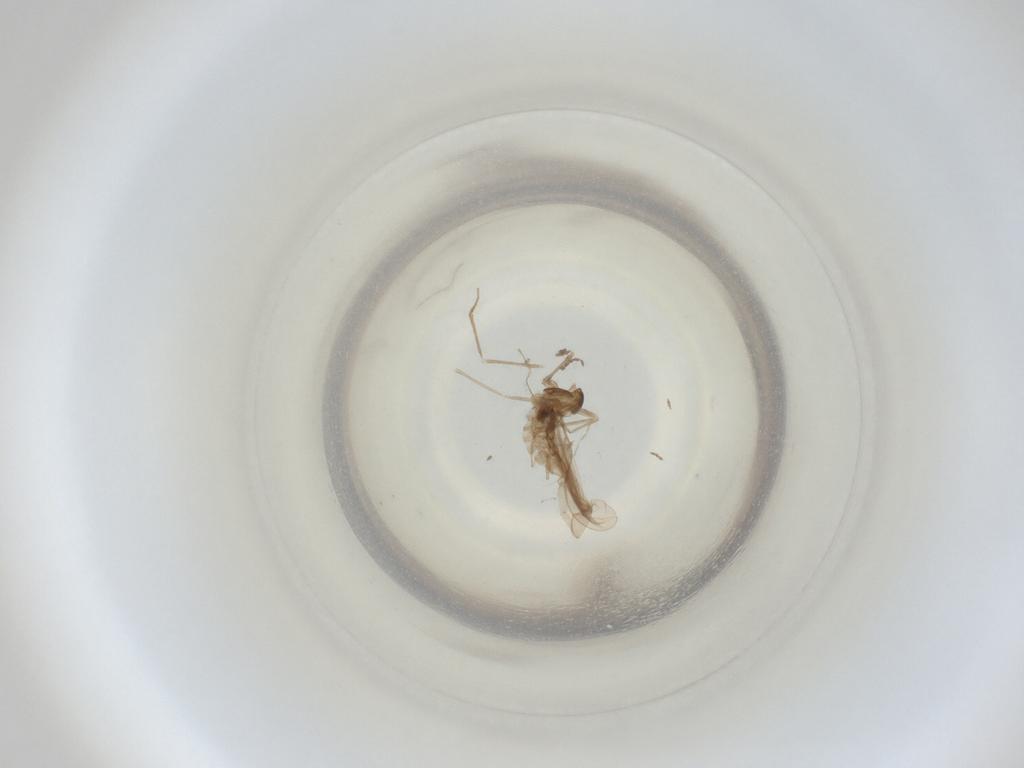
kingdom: Animalia
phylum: Arthropoda
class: Insecta
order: Diptera
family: Cecidomyiidae
